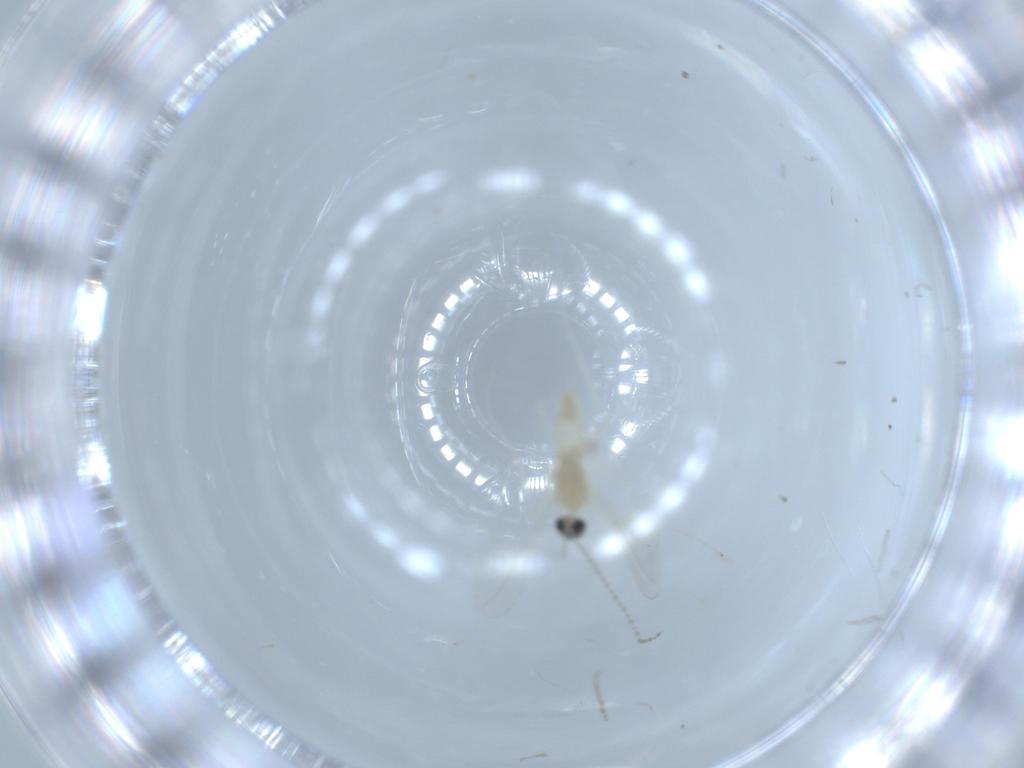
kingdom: Animalia
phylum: Arthropoda
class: Insecta
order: Diptera
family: Cecidomyiidae
